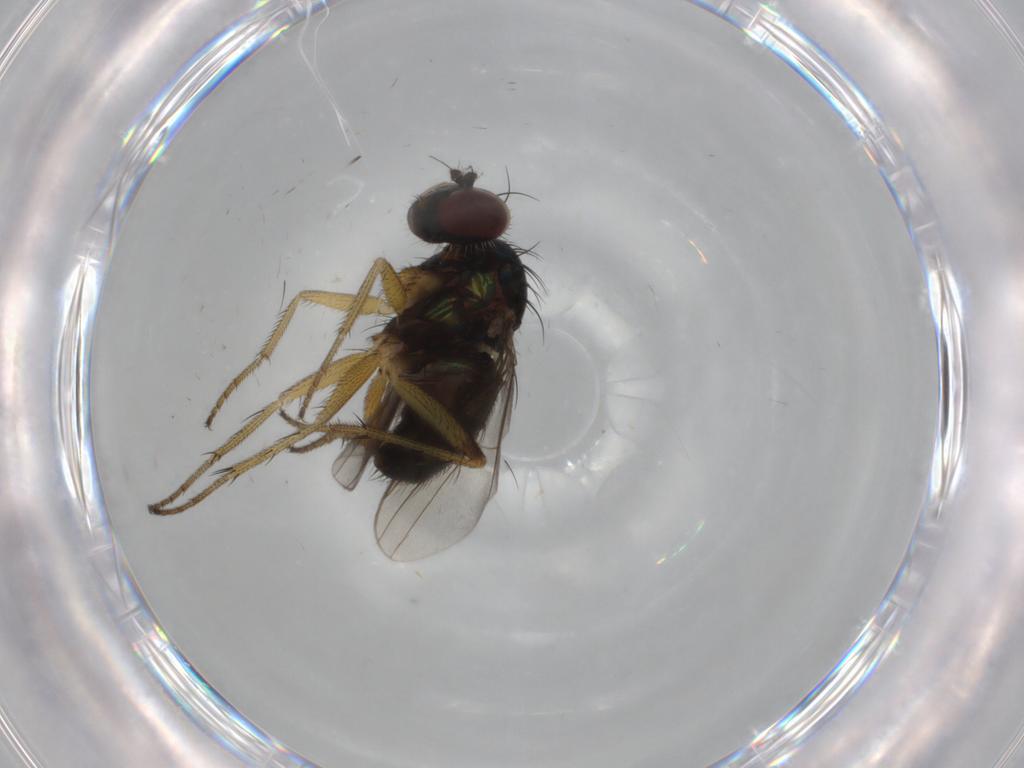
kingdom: Animalia
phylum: Arthropoda
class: Insecta
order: Diptera
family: Dolichopodidae
